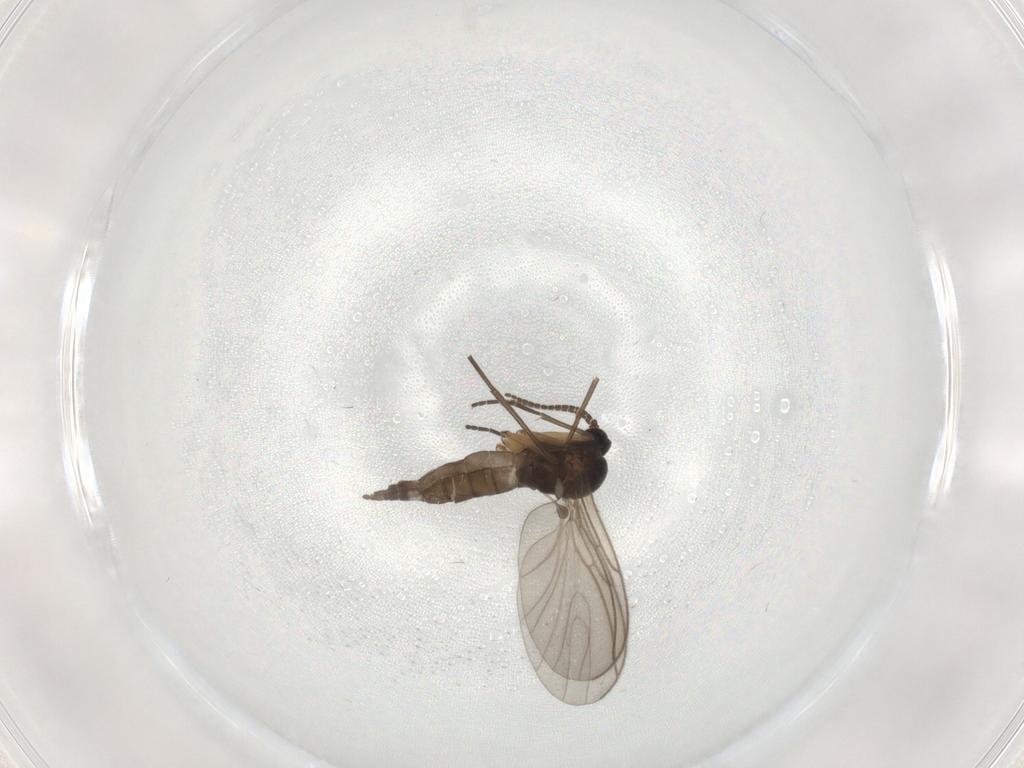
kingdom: Animalia
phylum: Arthropoda
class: Insecta
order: Diptera
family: Sciaridae
